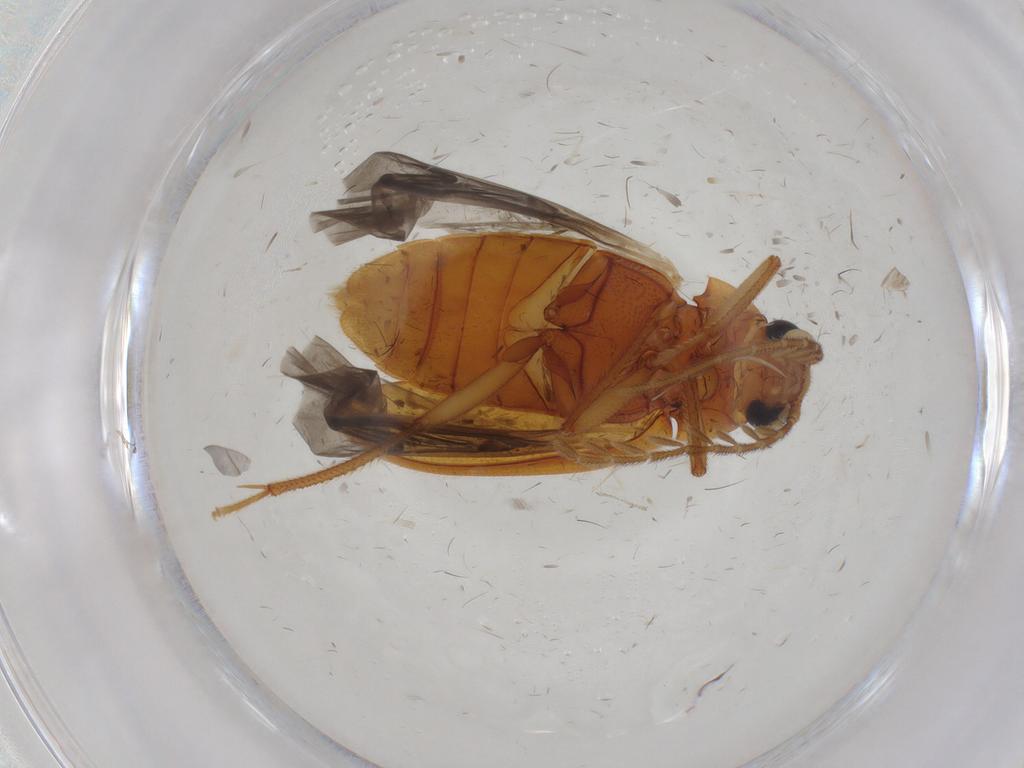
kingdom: Animalia
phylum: Arthropoda
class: Insecta
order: Coleoptera
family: Ptilodactylidae
